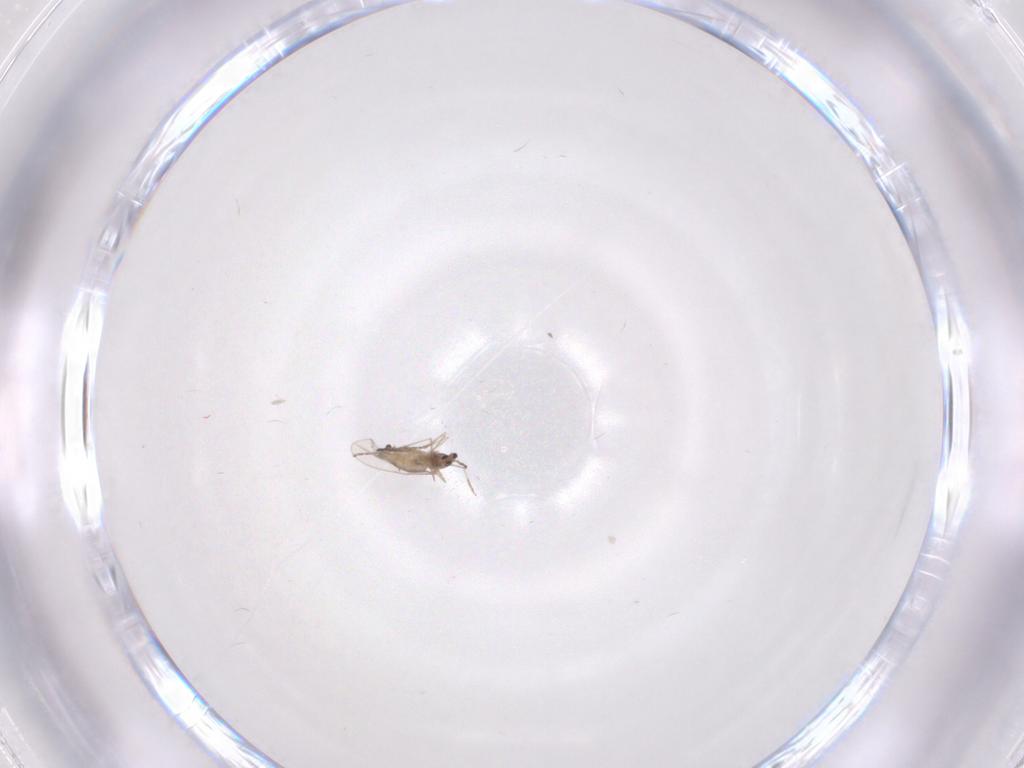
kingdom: Animalia
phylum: Arthropoda
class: Insecta
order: Diptera
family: Cecidomyiidae
